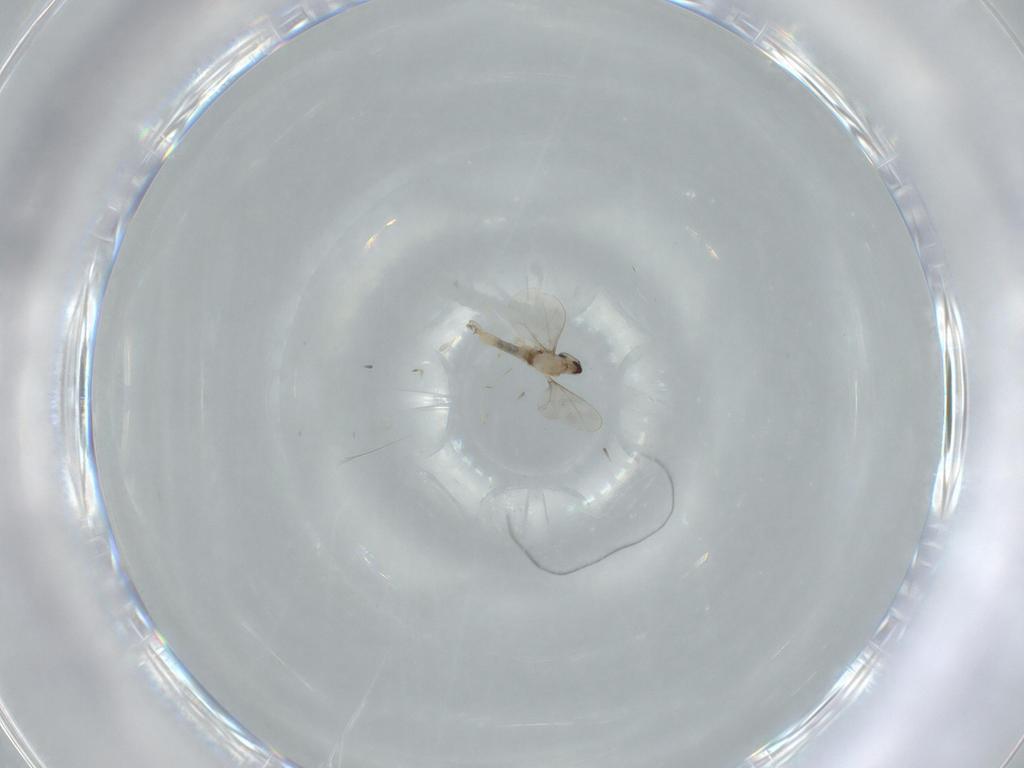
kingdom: Animalia
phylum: Arthropoda
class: Insecta
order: Diptera
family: Cecidomyiidae
